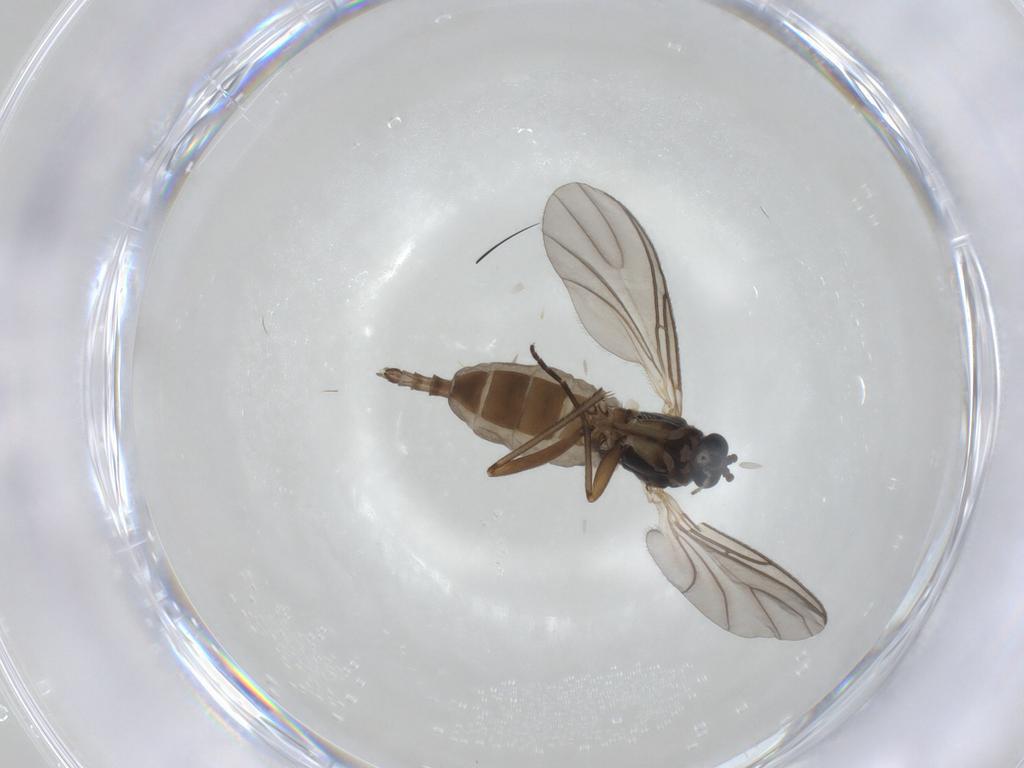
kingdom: Animalia
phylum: Arthropoda
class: Insecta
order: Diptera
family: Sciaridae
